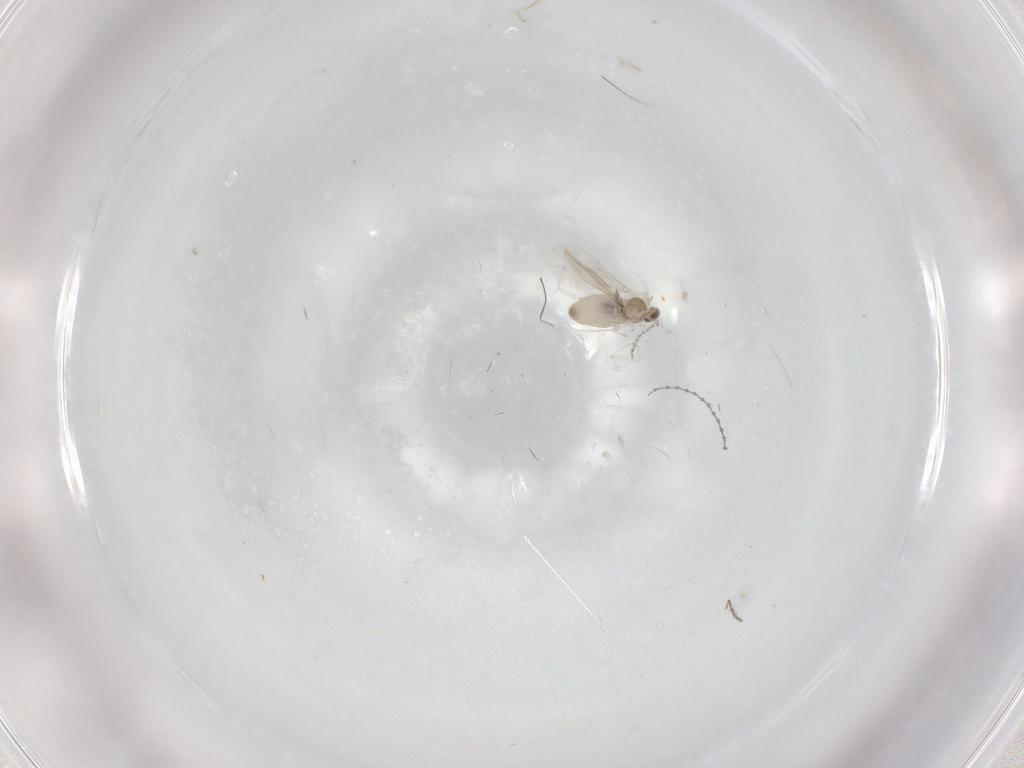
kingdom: Animalia
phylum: Arthropoda
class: Insecta
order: Diptera
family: Cecidomyiidae
